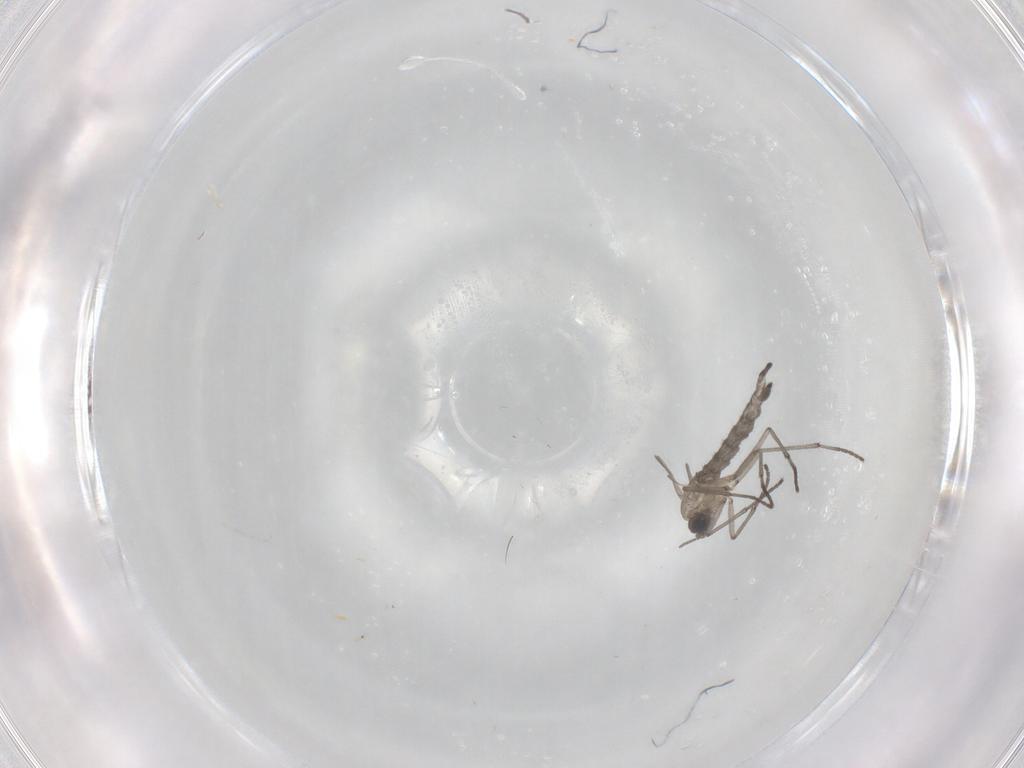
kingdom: Animalia
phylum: Arthropoda
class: Insecta
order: Diptera
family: Sciaridae
